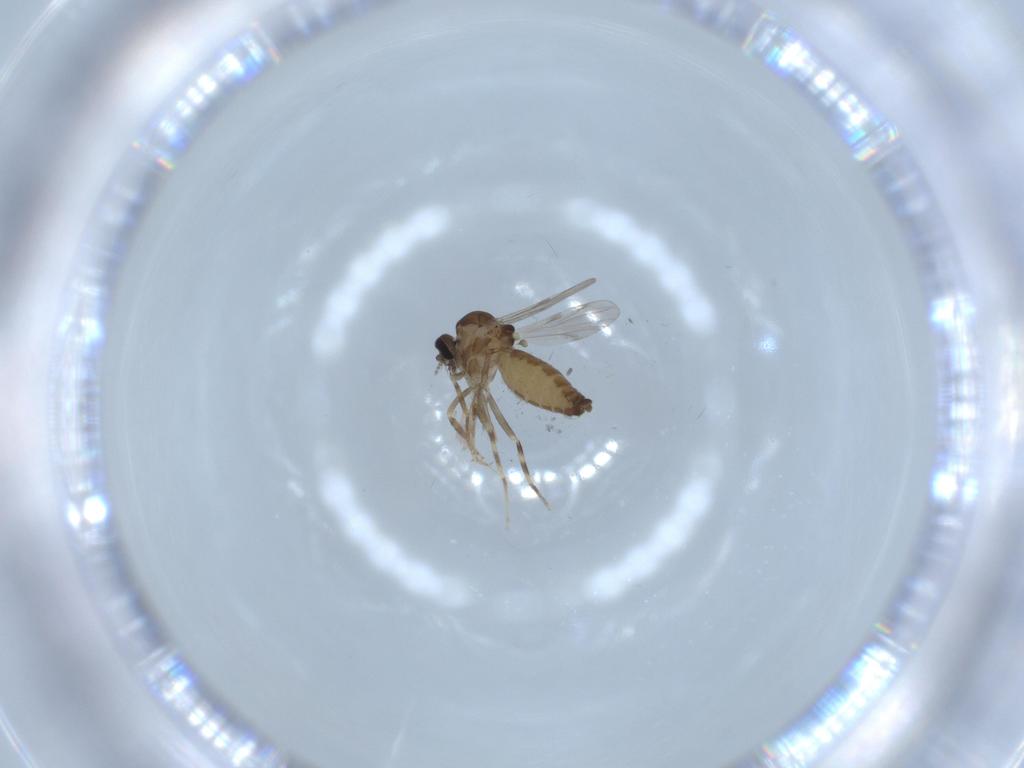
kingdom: Animalia
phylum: Arthropoda
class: Insecta
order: Diptera
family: Ceratopogonidae
